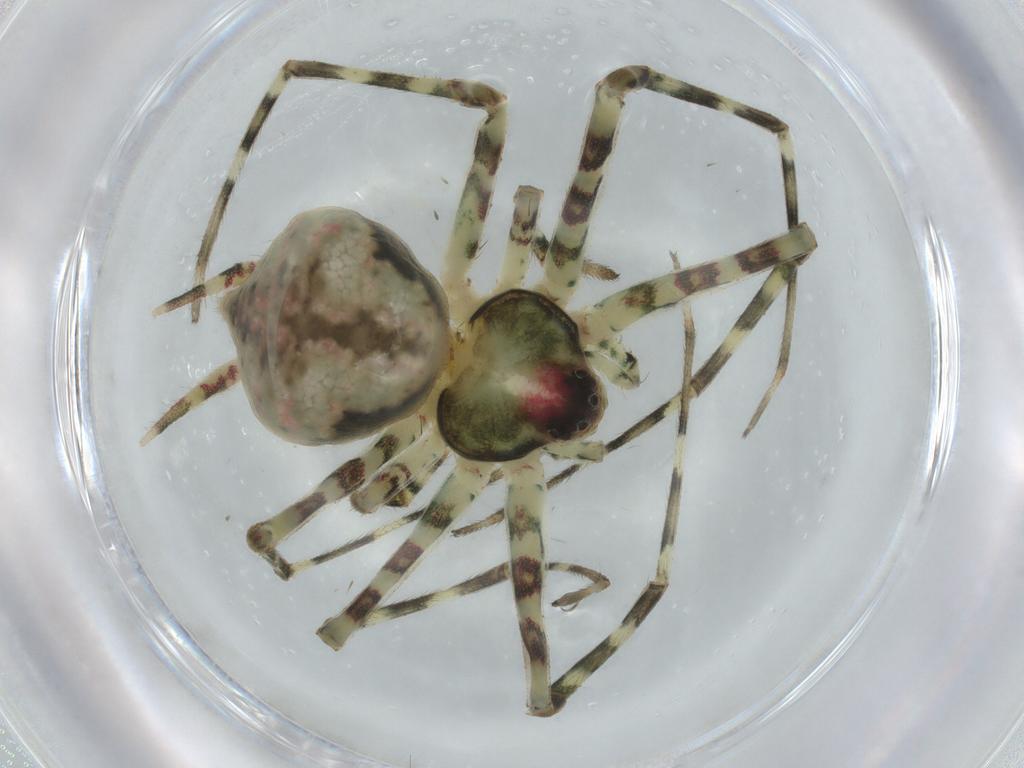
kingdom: Animalia
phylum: Arthropoda
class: Arachnida
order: Araneae
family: Hersiliidae
